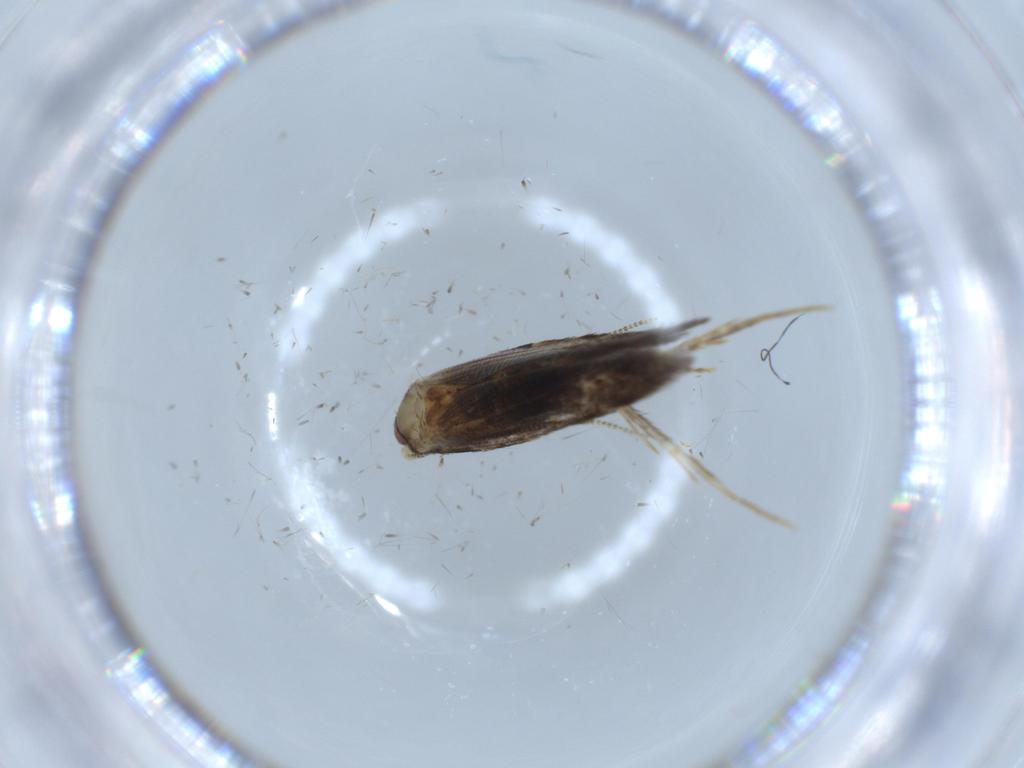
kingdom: Animalia
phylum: Arthropoda
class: Insecta
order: Lepidoptera
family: Tineidae
